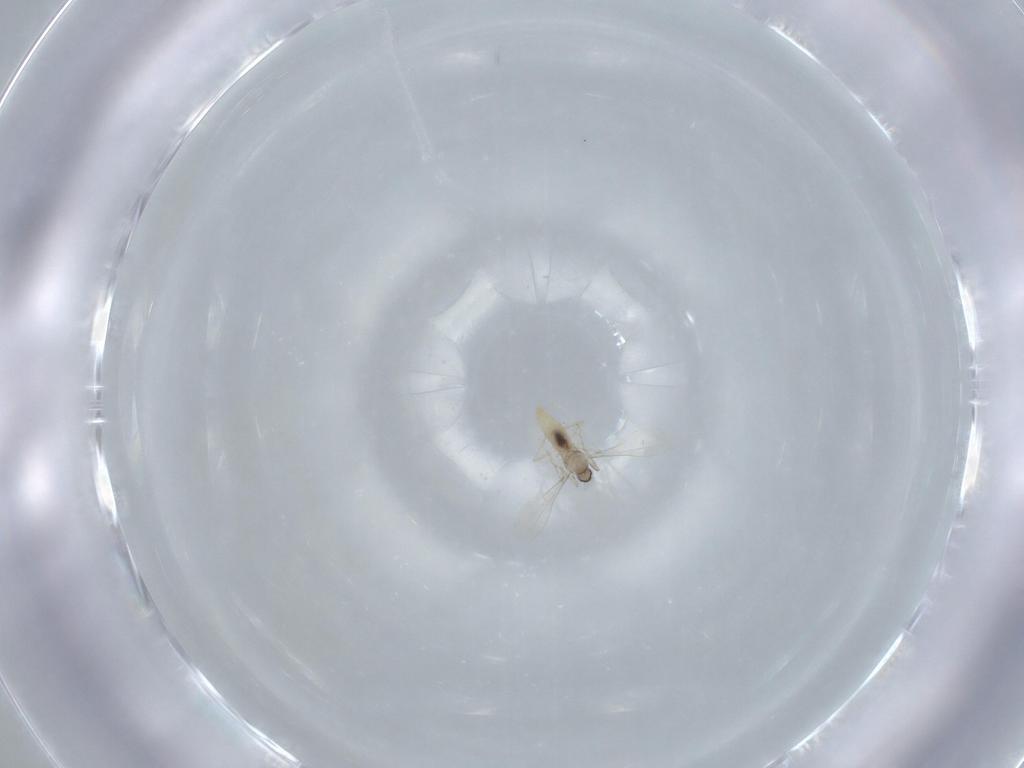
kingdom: Animalia
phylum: Arthropoda
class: Insecta
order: Diptera
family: Cecidomyiidae
